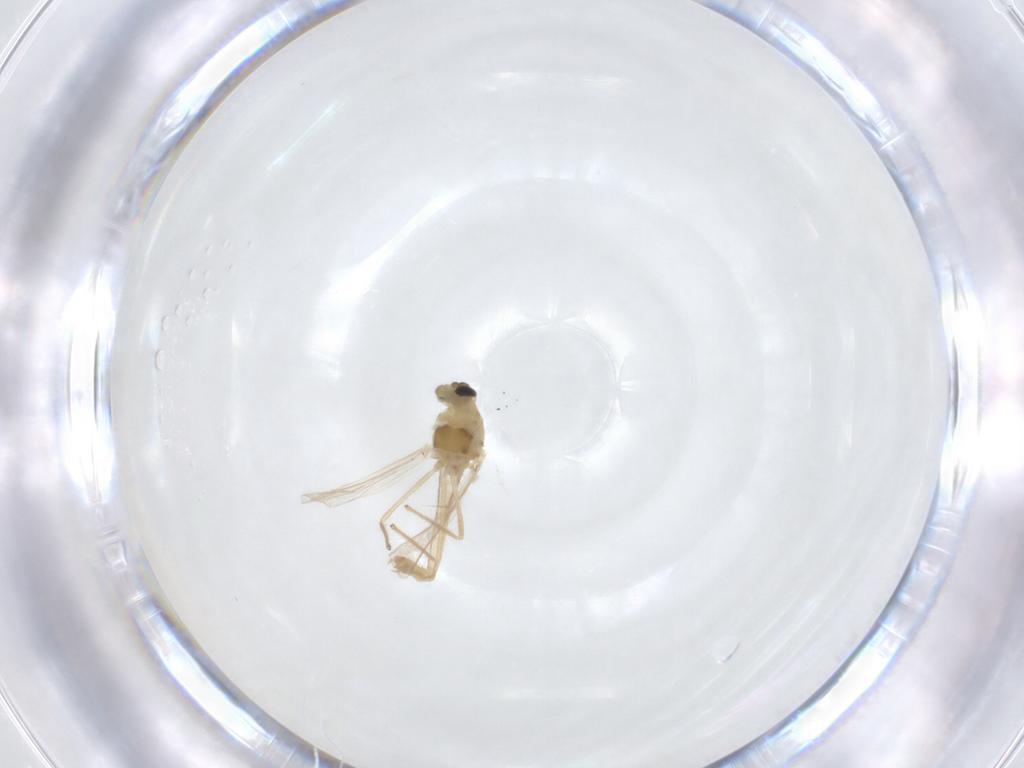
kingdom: Animalia
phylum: Arthropoda
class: Insecta
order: Diptera
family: Chironomidae
